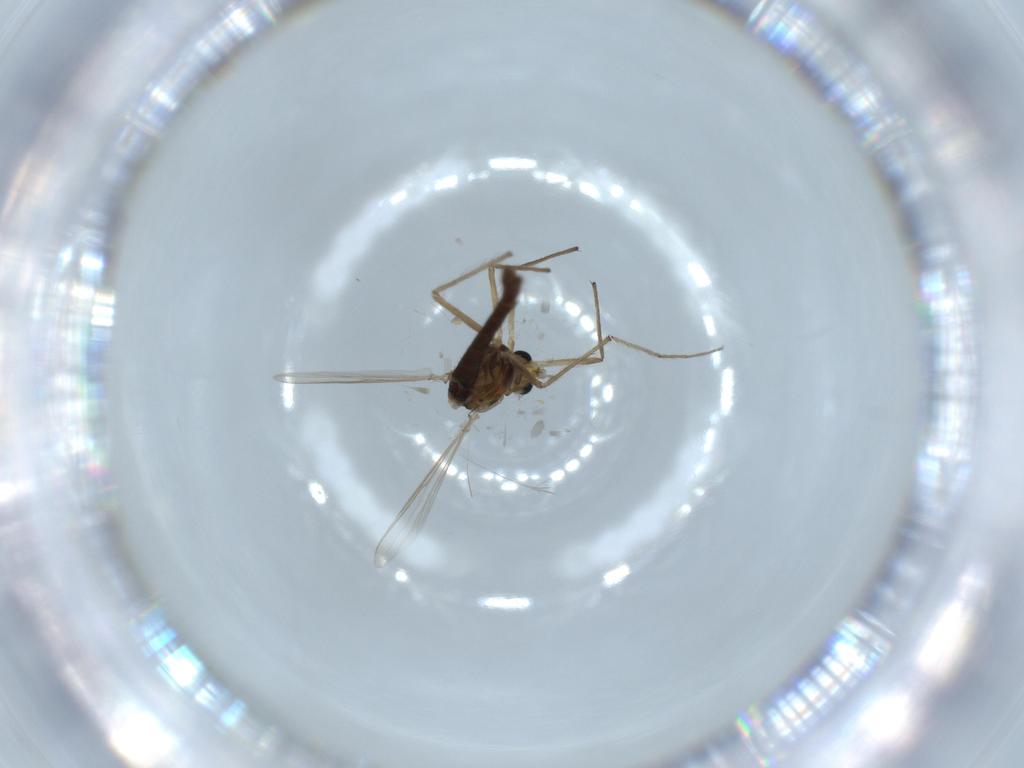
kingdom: Animalia
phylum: Arthropoda
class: Insecta
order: Diptera
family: Chironomidae
